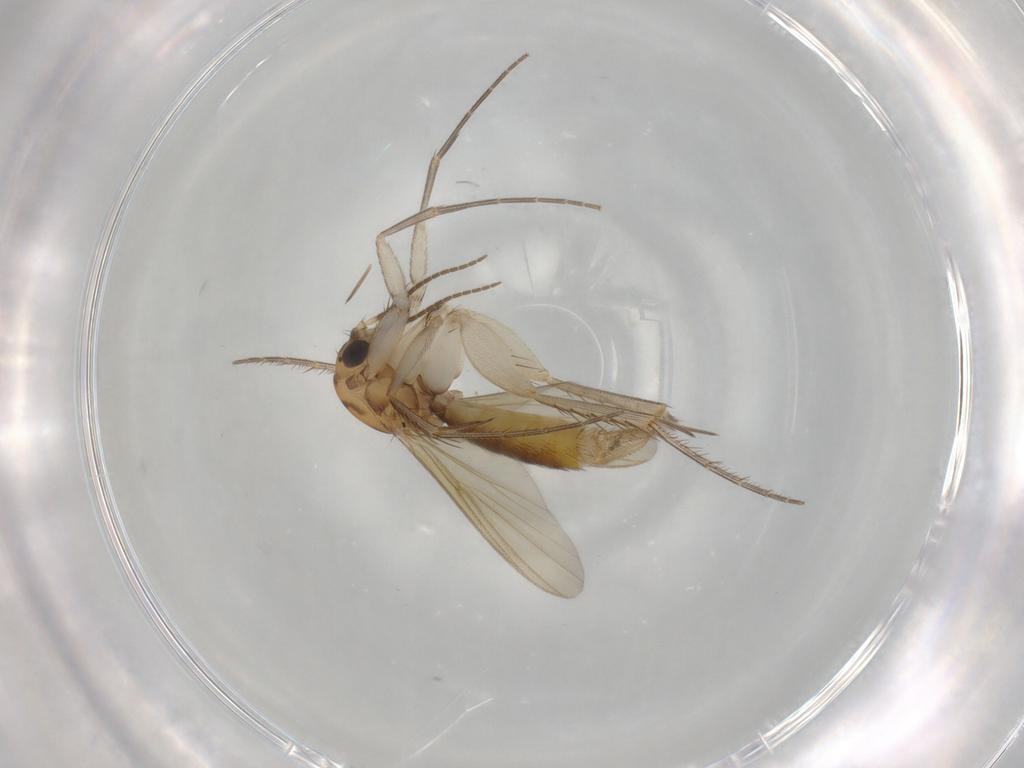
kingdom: Animalia
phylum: Arthropoda
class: Insecta
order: Diptera
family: Mycetophilidae
